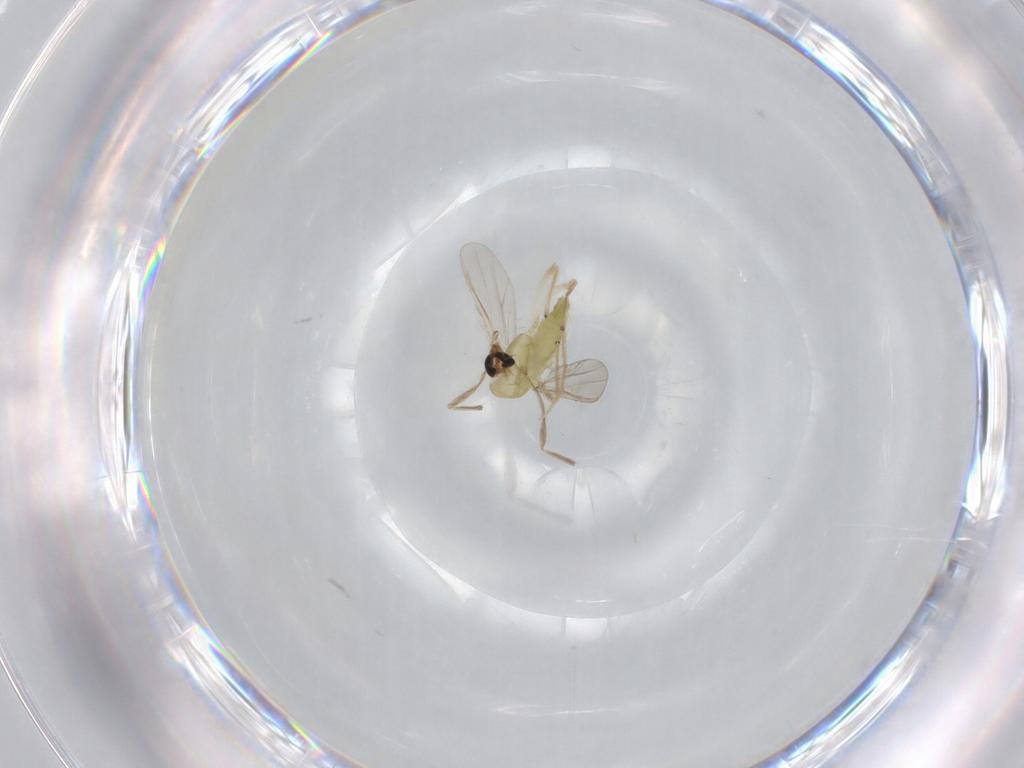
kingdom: Animalia
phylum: Arthropoda
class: Insecta
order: Diptera
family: Chironomidae
